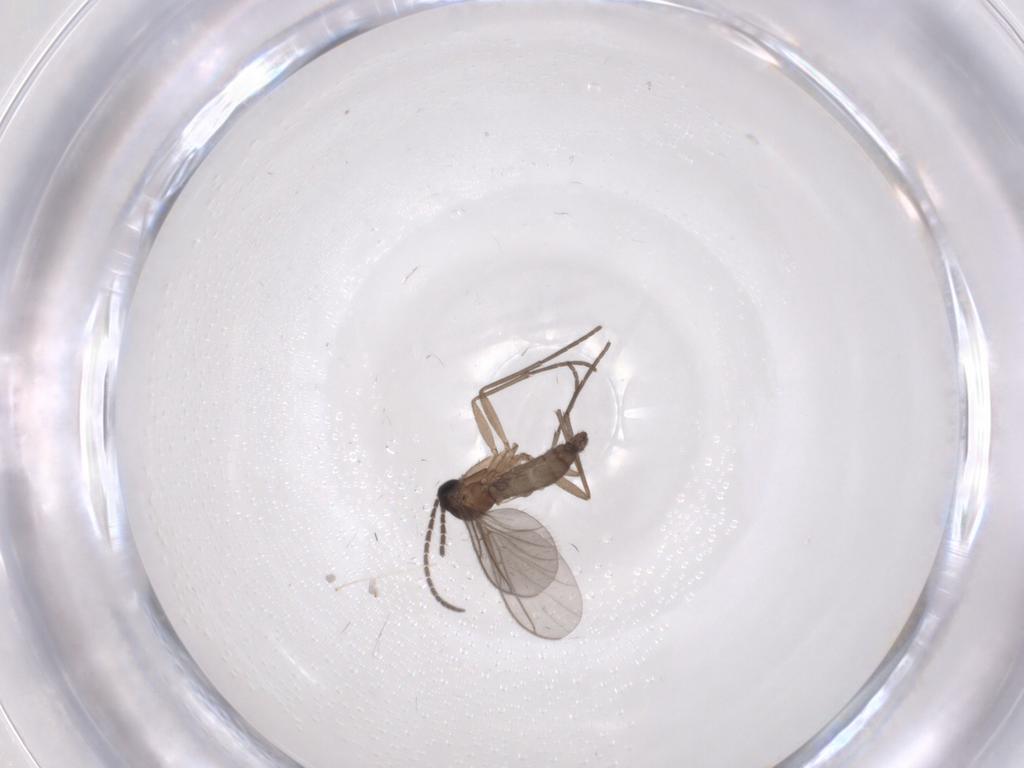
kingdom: Animalia
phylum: Arthropoda
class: Insecta
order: Diptera
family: Sciaridae
